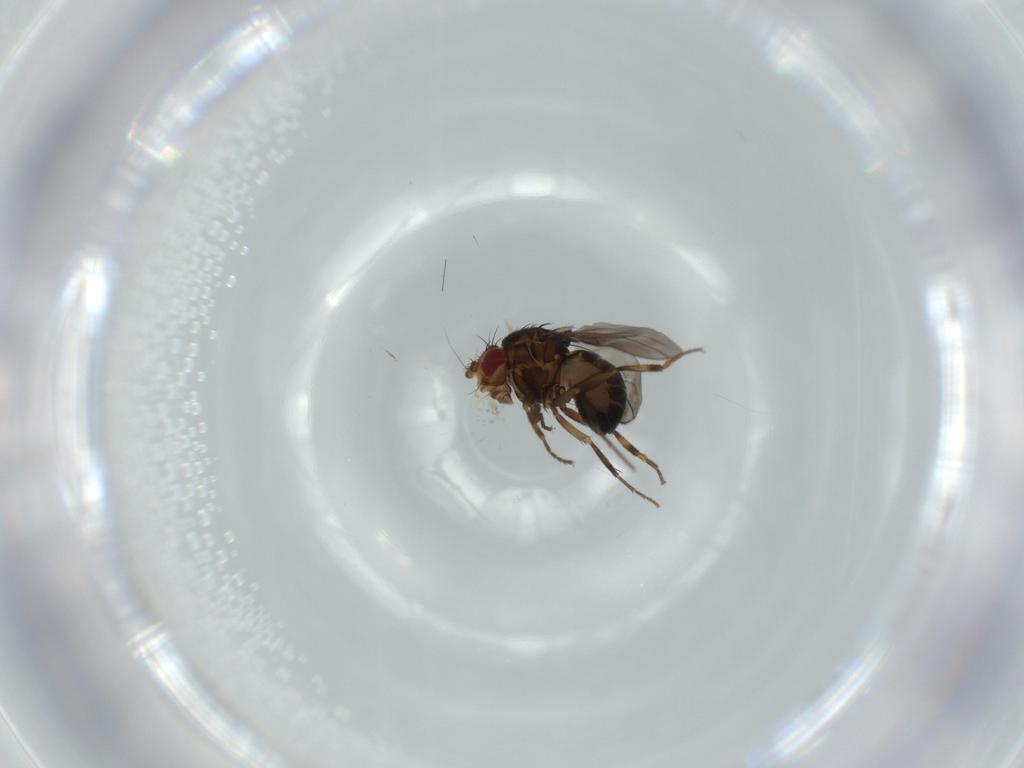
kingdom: Animalia
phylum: Arthropoda
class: Insecta
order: Diptera
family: Sphaeroceridae
